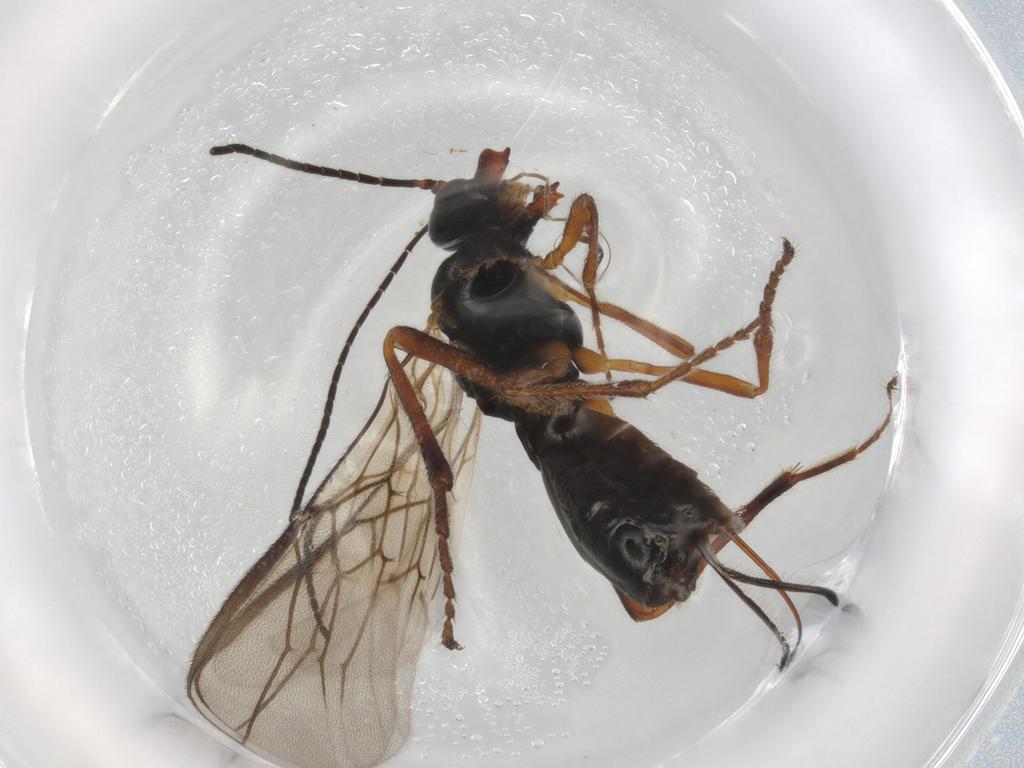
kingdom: Animalia
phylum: Arthropoda
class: Insecta
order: Hymenoptera
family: Braconidae
